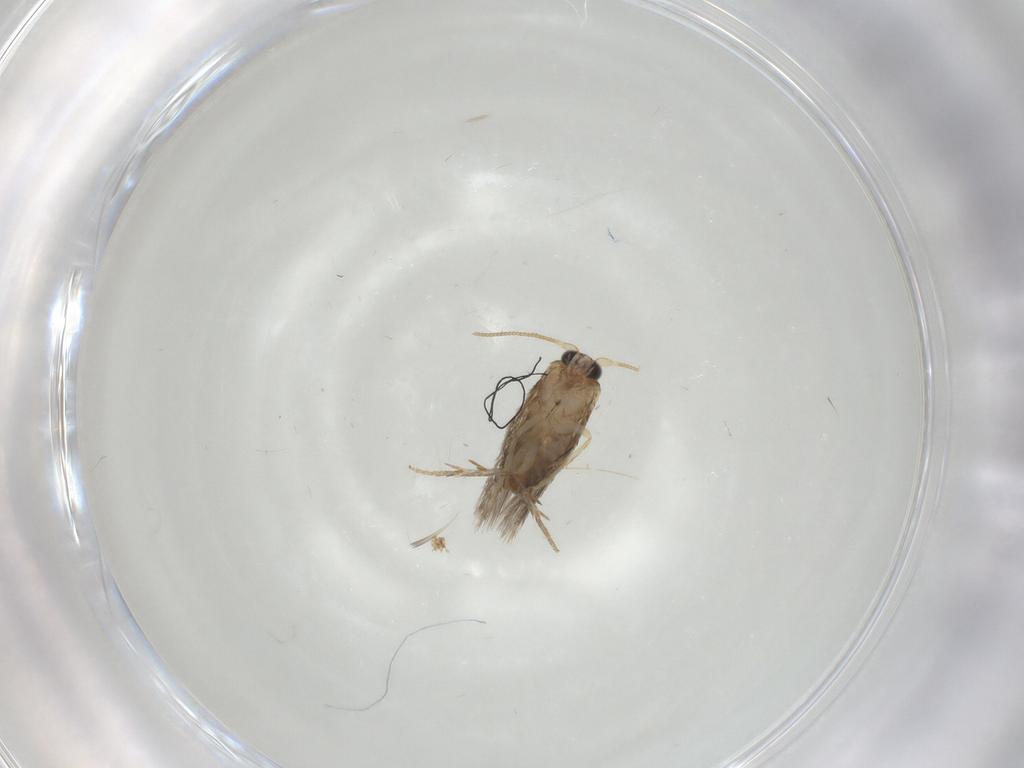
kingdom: Animalia
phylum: Arthropoda
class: Insecta
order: Lepidoptera
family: Nepticulidae
